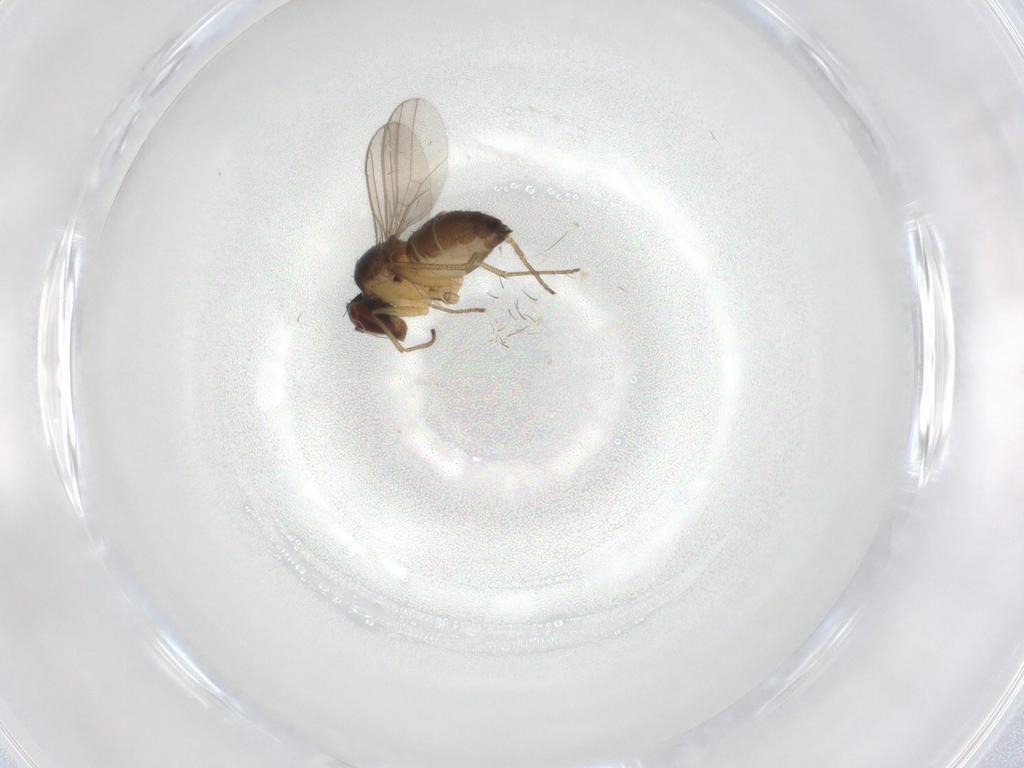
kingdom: Animalia
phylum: Arthropoda
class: Insecta
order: Diptera
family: Dolichopodidae
